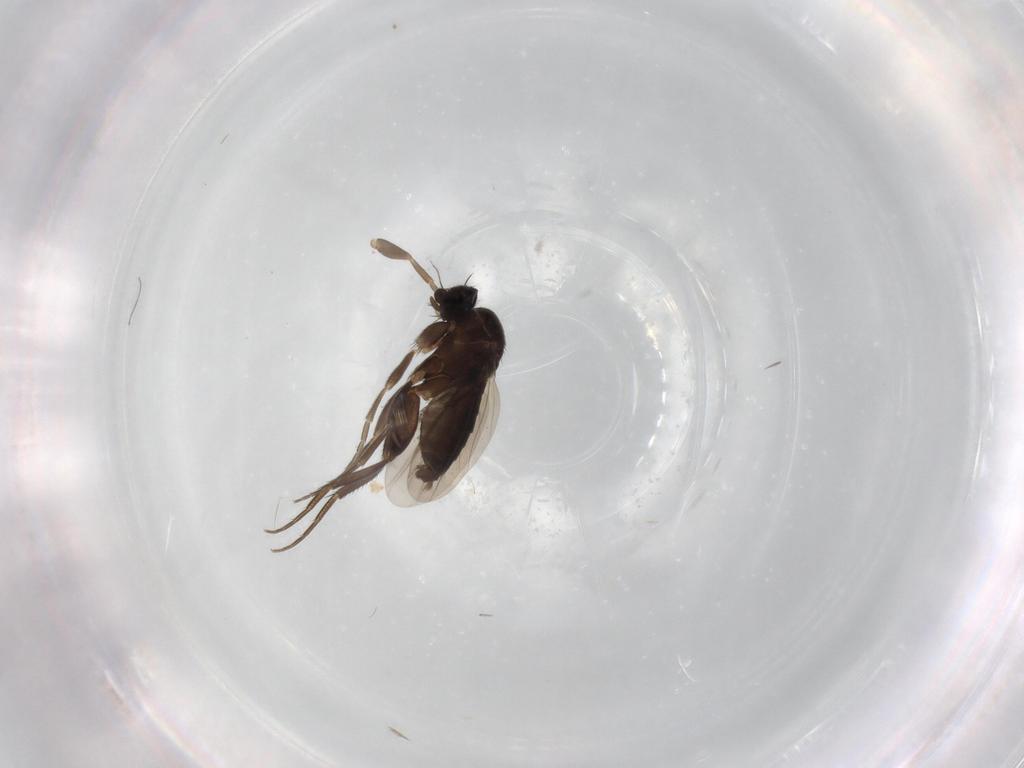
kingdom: Animalia
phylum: Arthropoda
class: Insecta
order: Diptera
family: Phoridae
